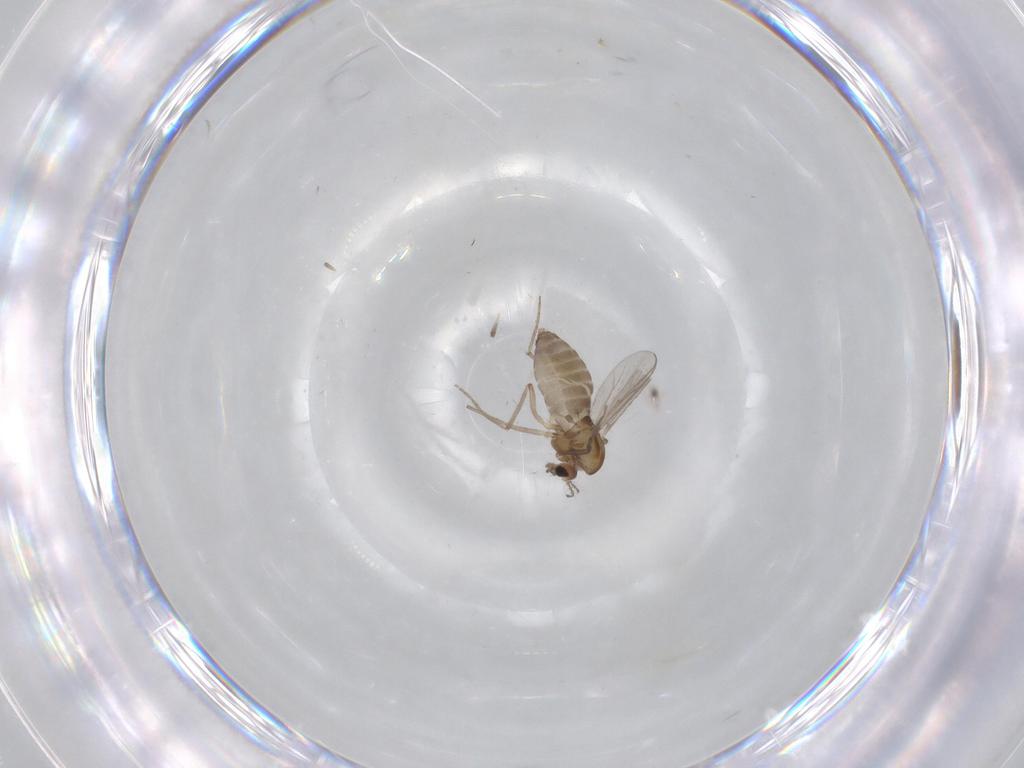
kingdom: Animalia
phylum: Arthropoda
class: Insecta
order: Diptera
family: Chironomidae
